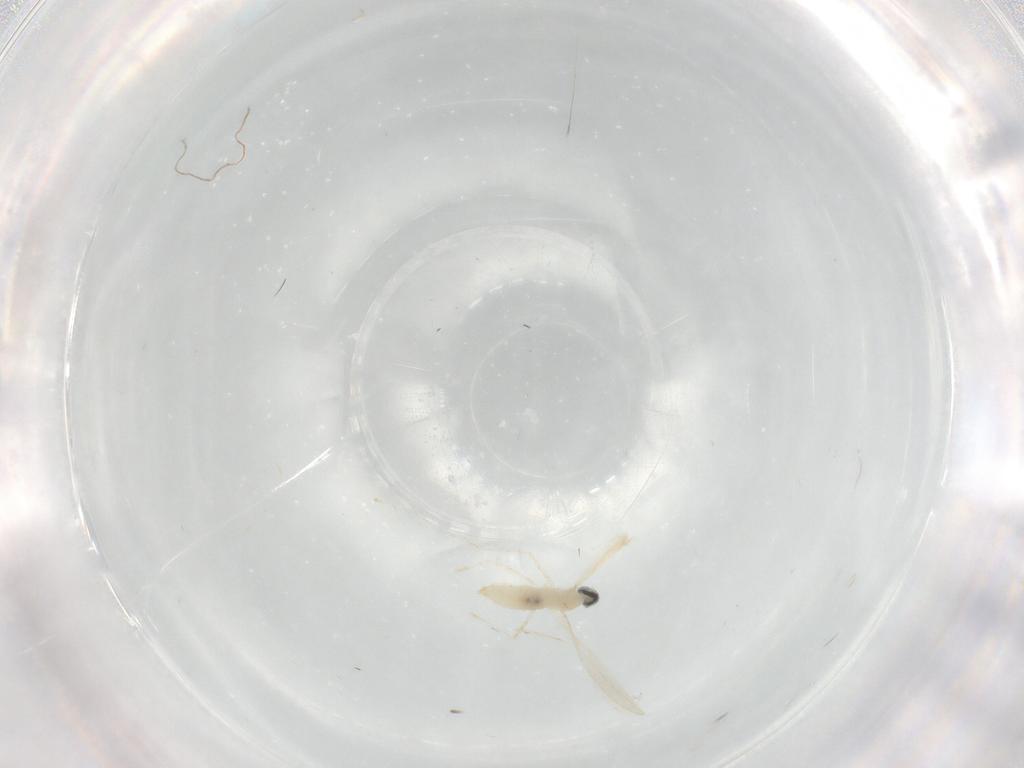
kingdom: Animalia
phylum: Arthropoda
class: Insecta
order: Diptera
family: Cecidomyiidae
